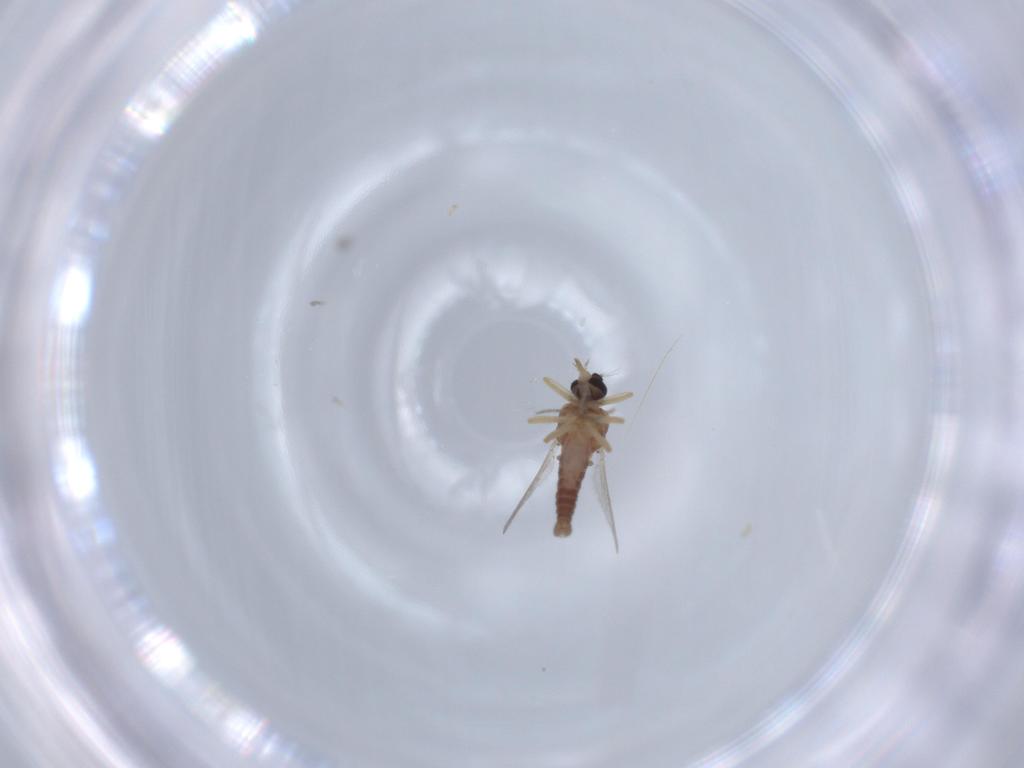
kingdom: Animalia
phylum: Arthropoda
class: Insecta
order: Diptera
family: Ceratopogonidae
